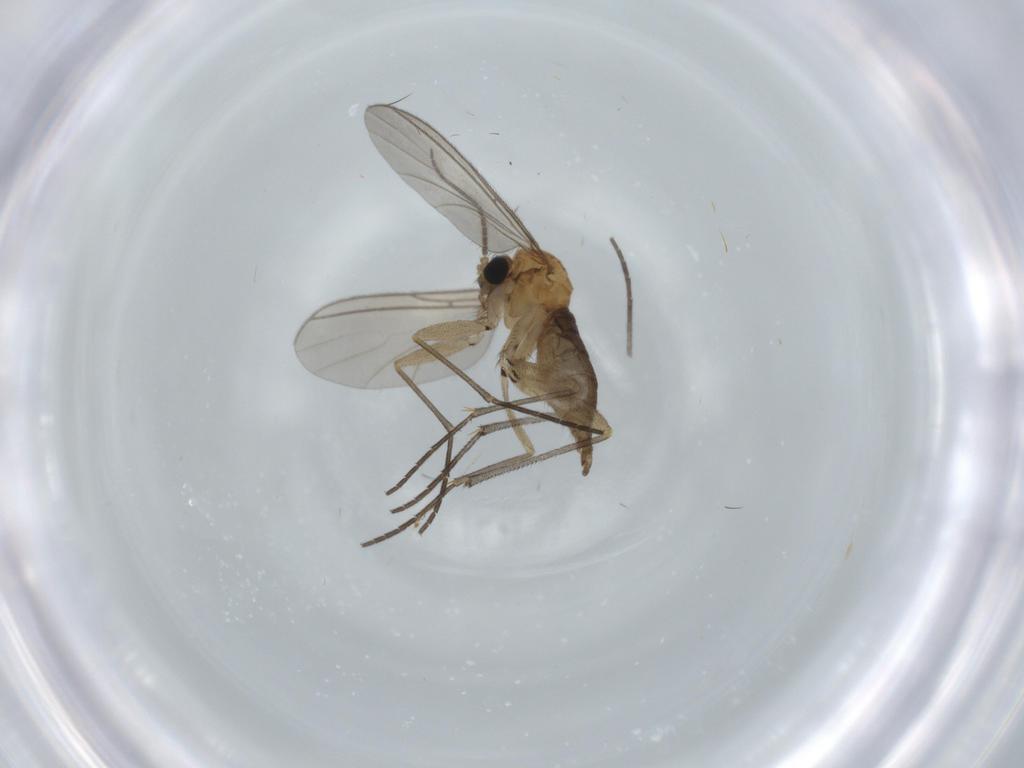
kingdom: Animalia
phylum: Arthropoda
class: Insecta
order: Diptera
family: Sciaridae
